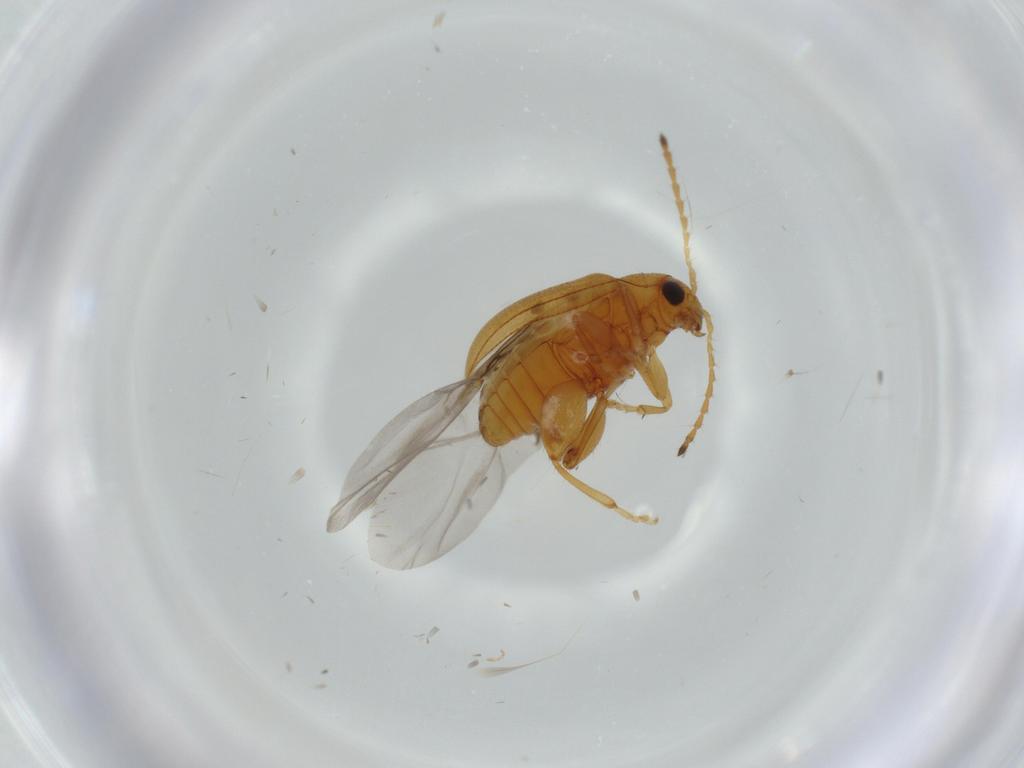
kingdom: Animalia
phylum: Arthropoda
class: Insecta
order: Coleoptera
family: Chrysomelidae
